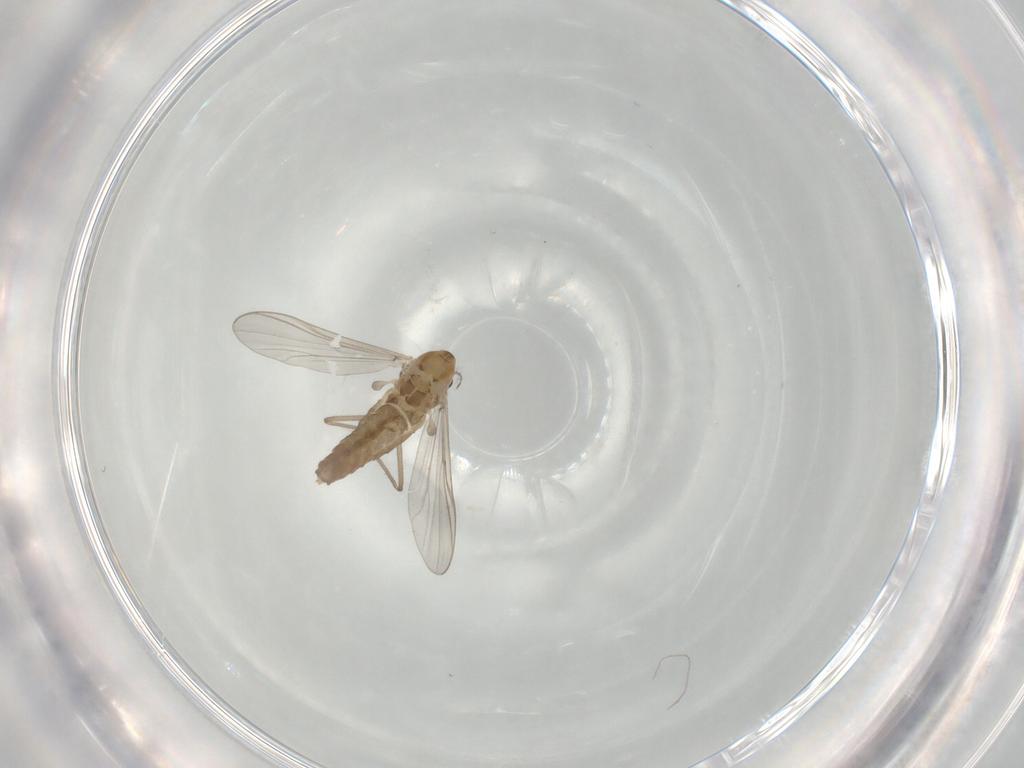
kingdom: Animalia
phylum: Arthropoda
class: Insecta
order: Diptera
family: Chironomidae
